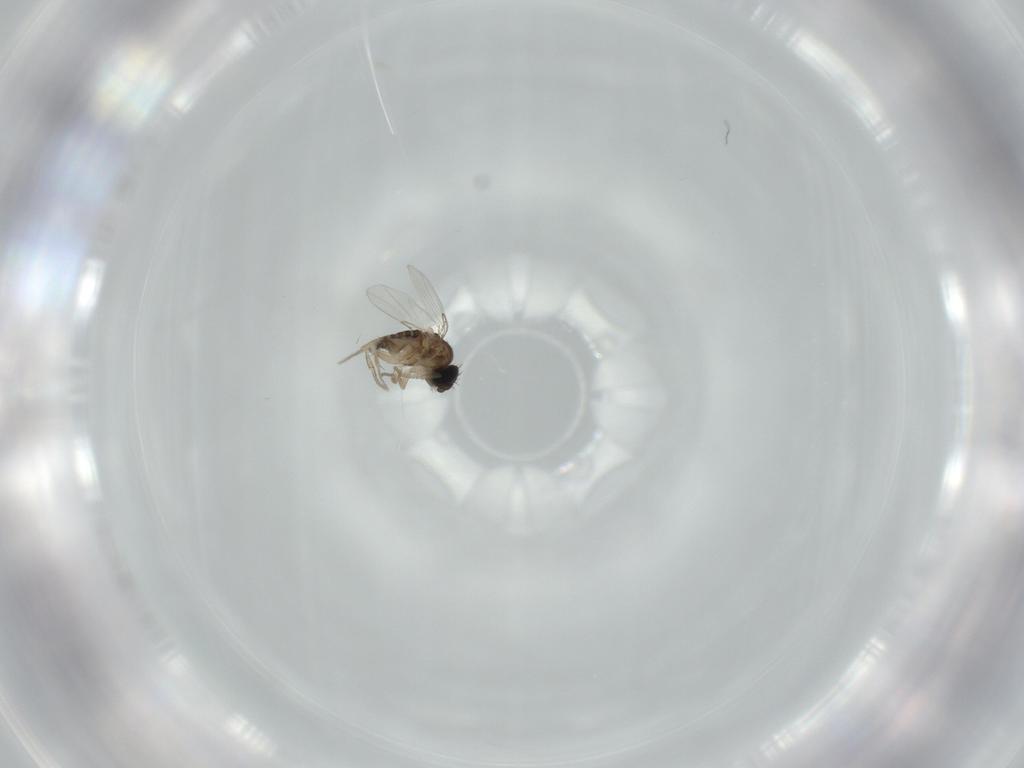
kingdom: Animalia
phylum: Arthropoda
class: Insecta
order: Diptera
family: Phoridae
